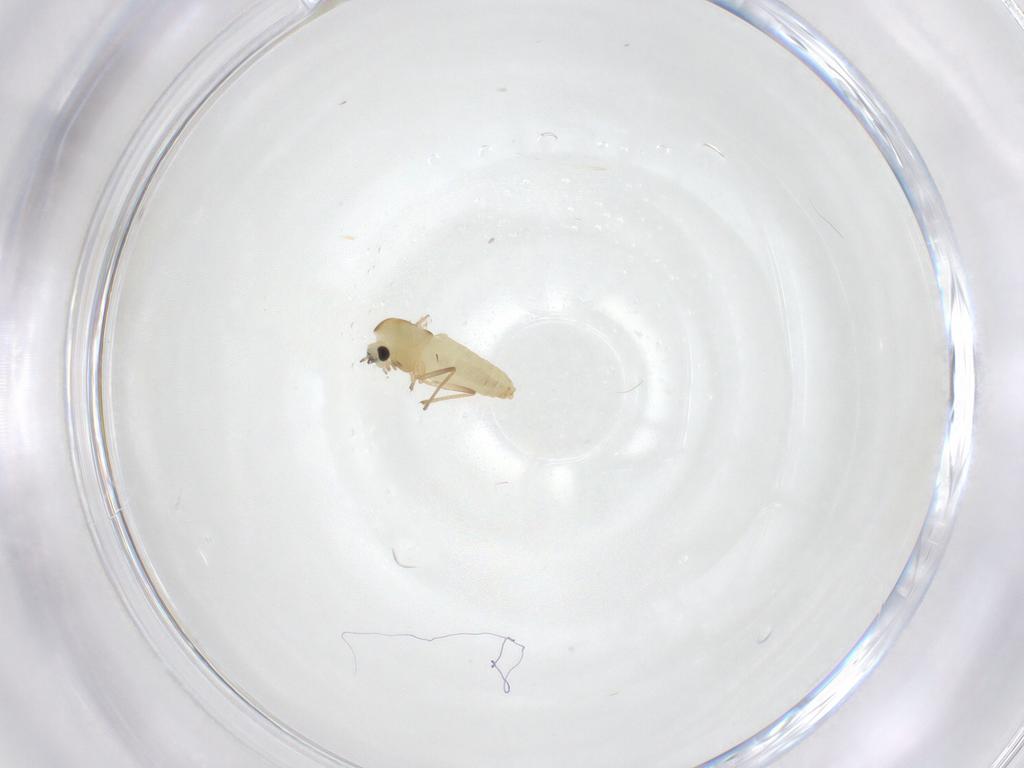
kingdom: Animalia
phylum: Arthropoda
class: Insecta
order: Diptera
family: Chironomidae
